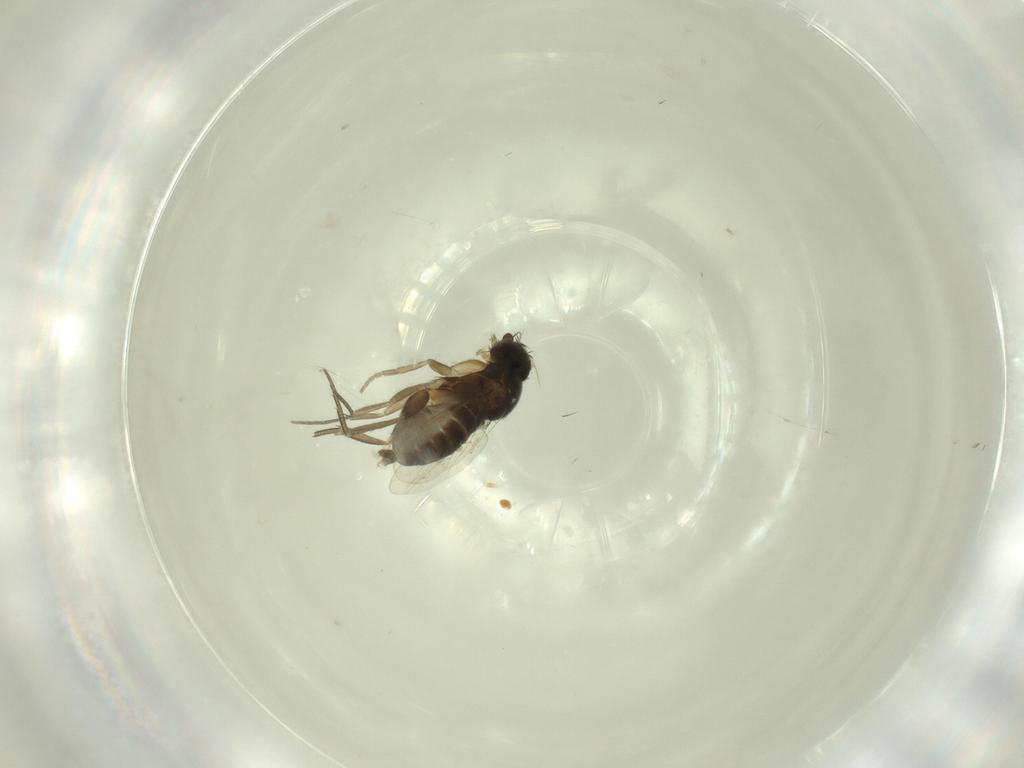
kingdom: Animalia
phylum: Arthropoda
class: Insecta
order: Diptera
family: Phoridae
